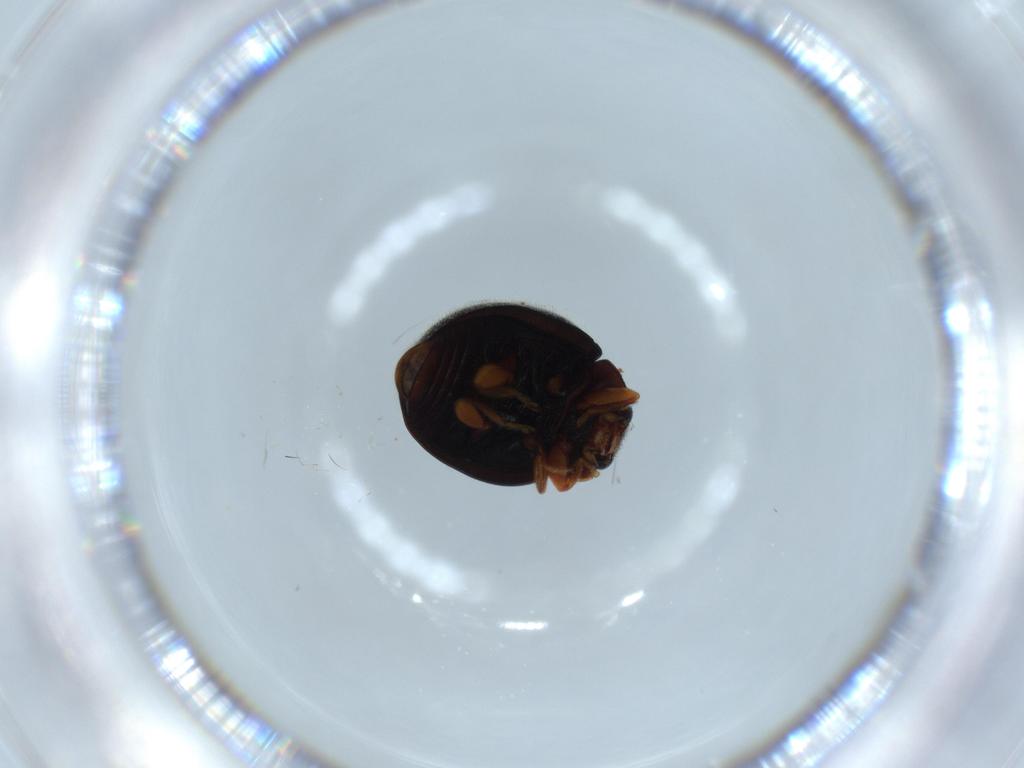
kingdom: Animalia
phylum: Arthropoda
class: Insecta
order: Coleoptera
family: Coccinellidae
